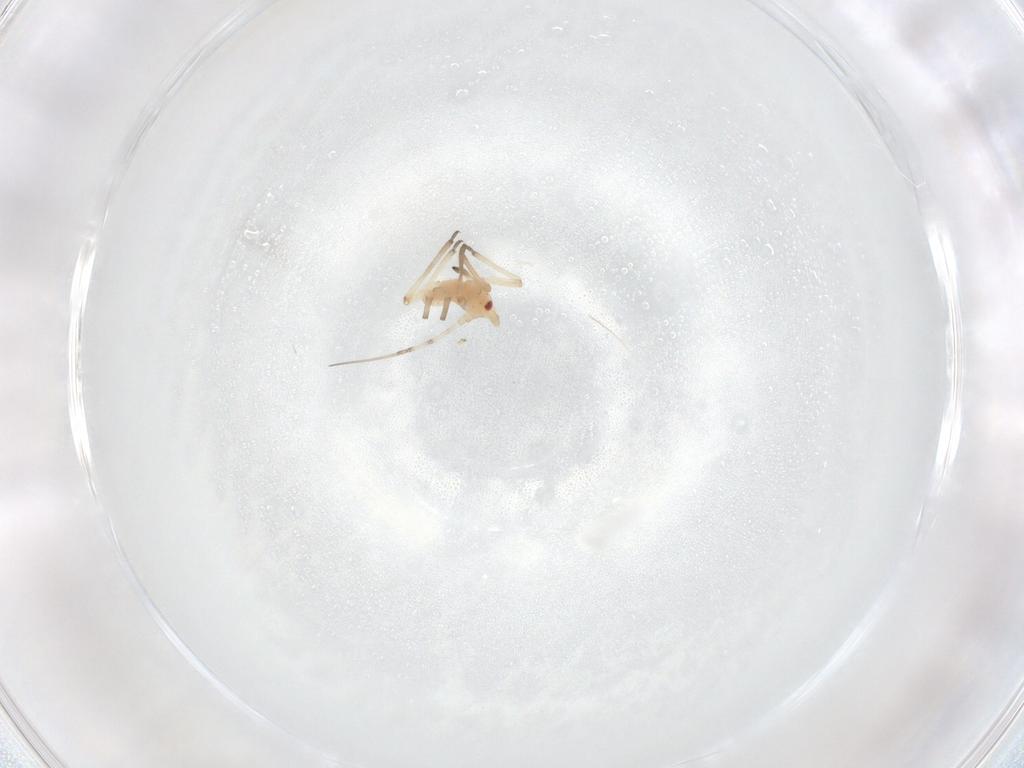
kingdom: Animalia
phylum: Arthropoda
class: Insecta
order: Hemiptera
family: Aphididae
